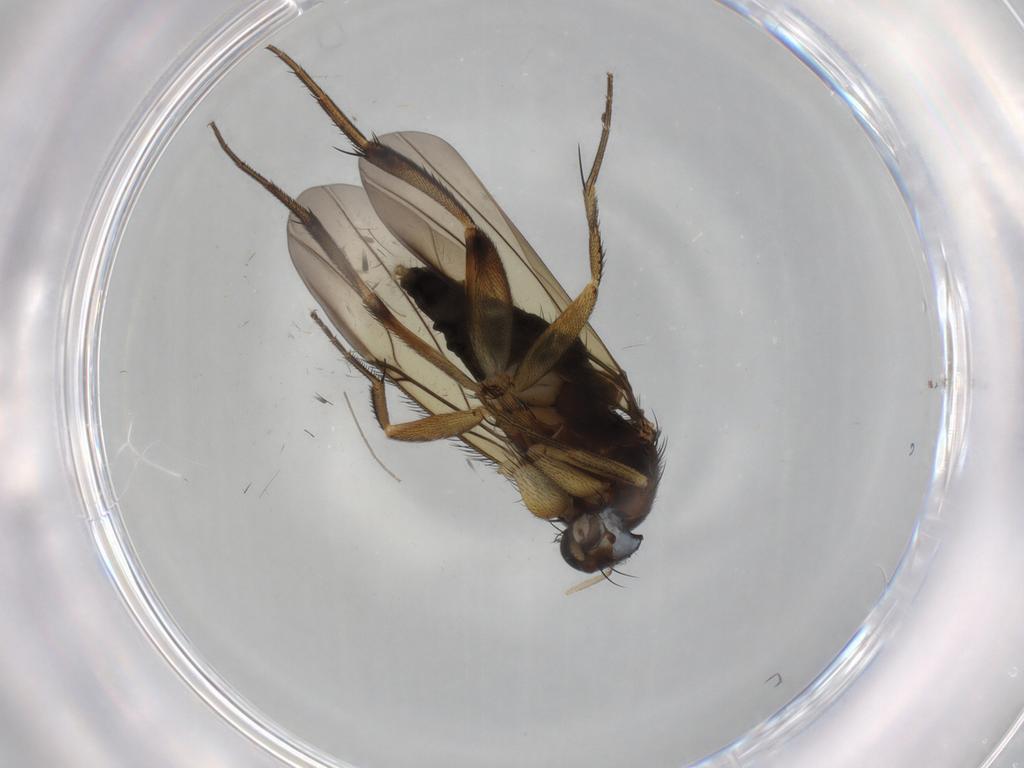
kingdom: Animalia
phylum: Arthropoda
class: Insecta
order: Diptera
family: Phoridae
